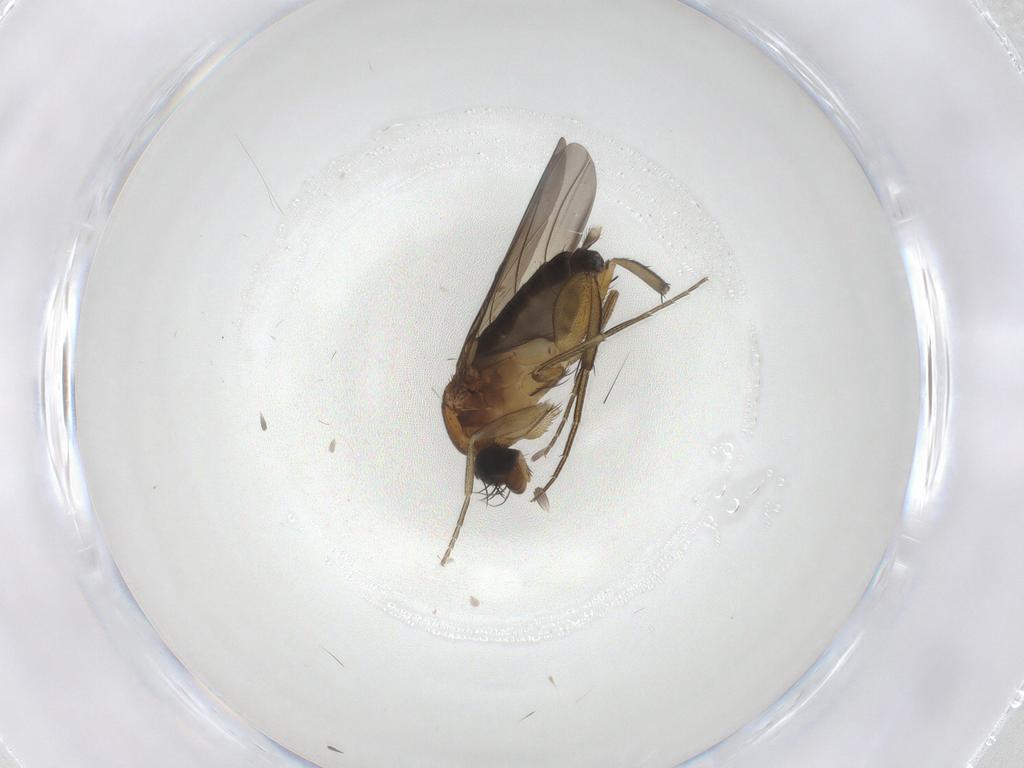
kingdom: Animalia
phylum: Arthropoda
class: Insecta
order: Diptera
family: Phoridae
